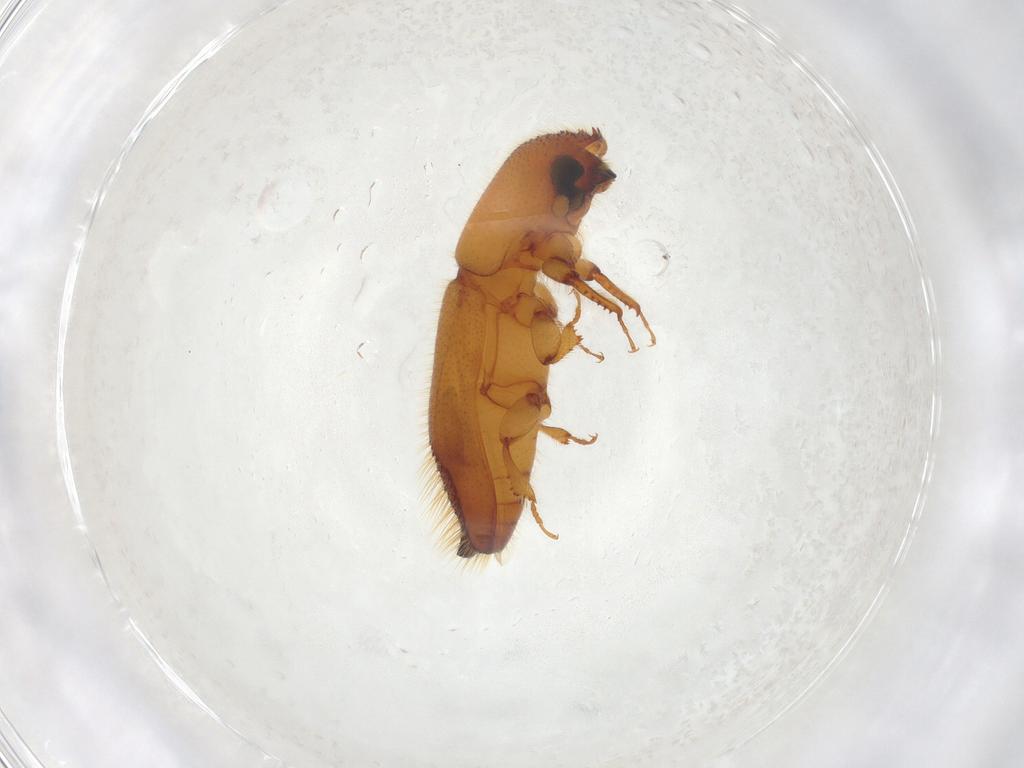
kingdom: Animalia
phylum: Arthropoda
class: Insecta
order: Coleoptera
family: Curculionidae
